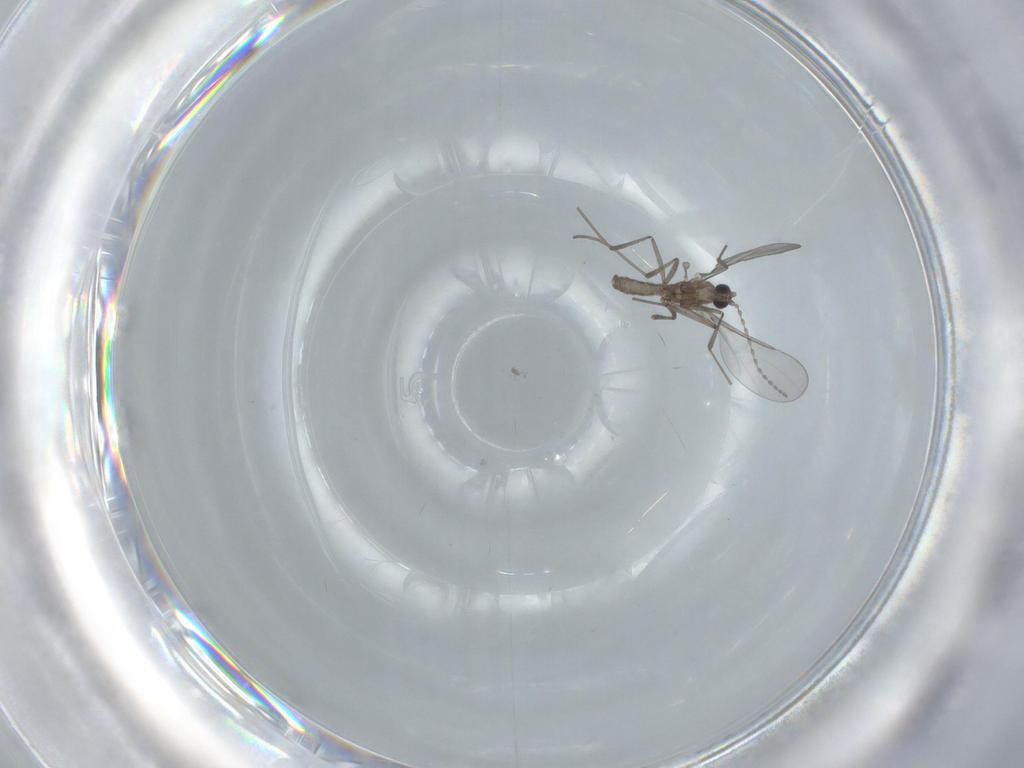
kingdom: Animalia
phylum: Arthropoda
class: Insecta
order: Diptera
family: Cecidomyiidae
